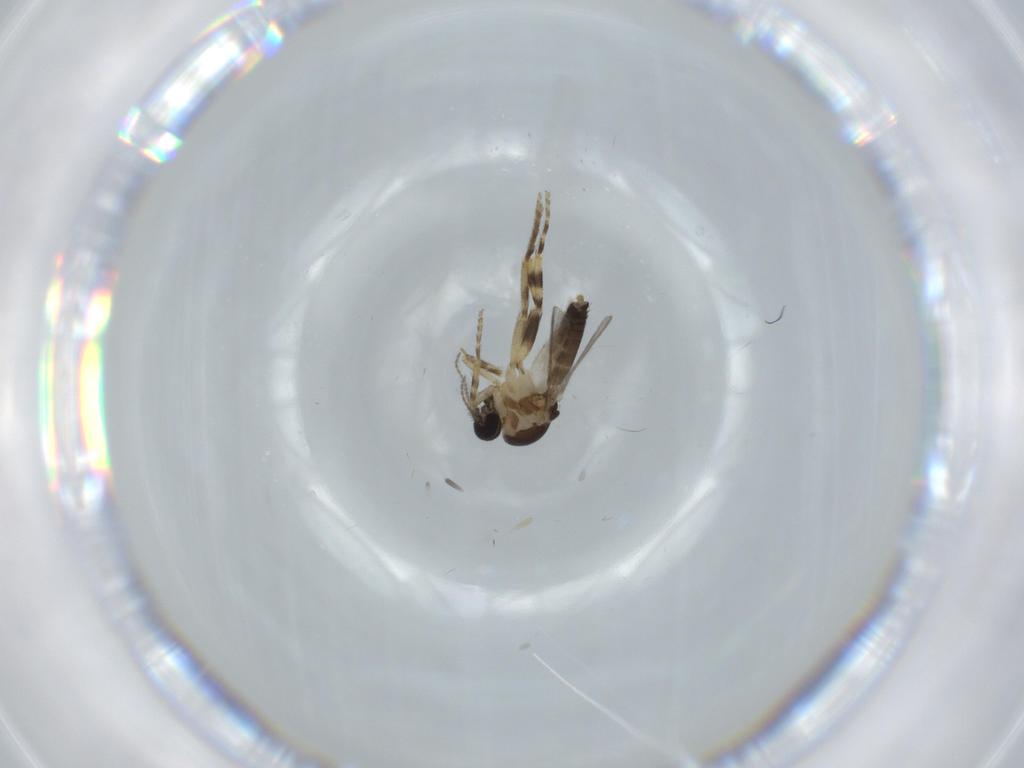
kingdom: Animalia
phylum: Arthropoda
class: Insecta
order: Diptera
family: Ceratopogonidae
